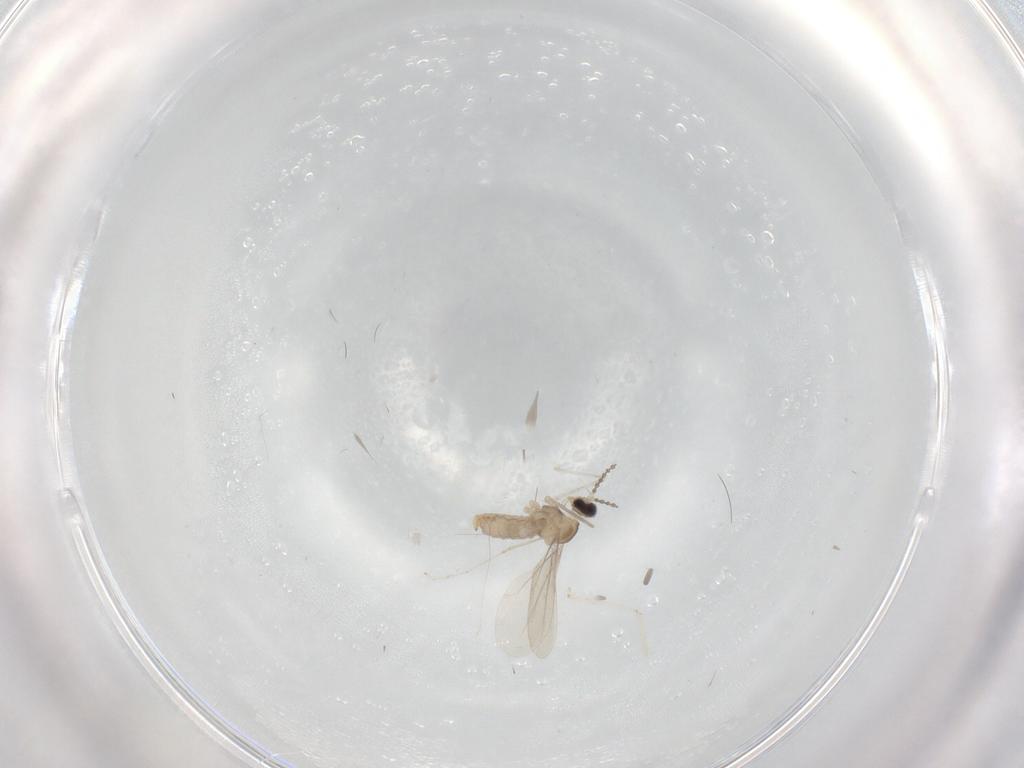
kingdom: Animalia
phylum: Arthropoda
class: Insecta
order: Diptera
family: Cecidomyiidae
